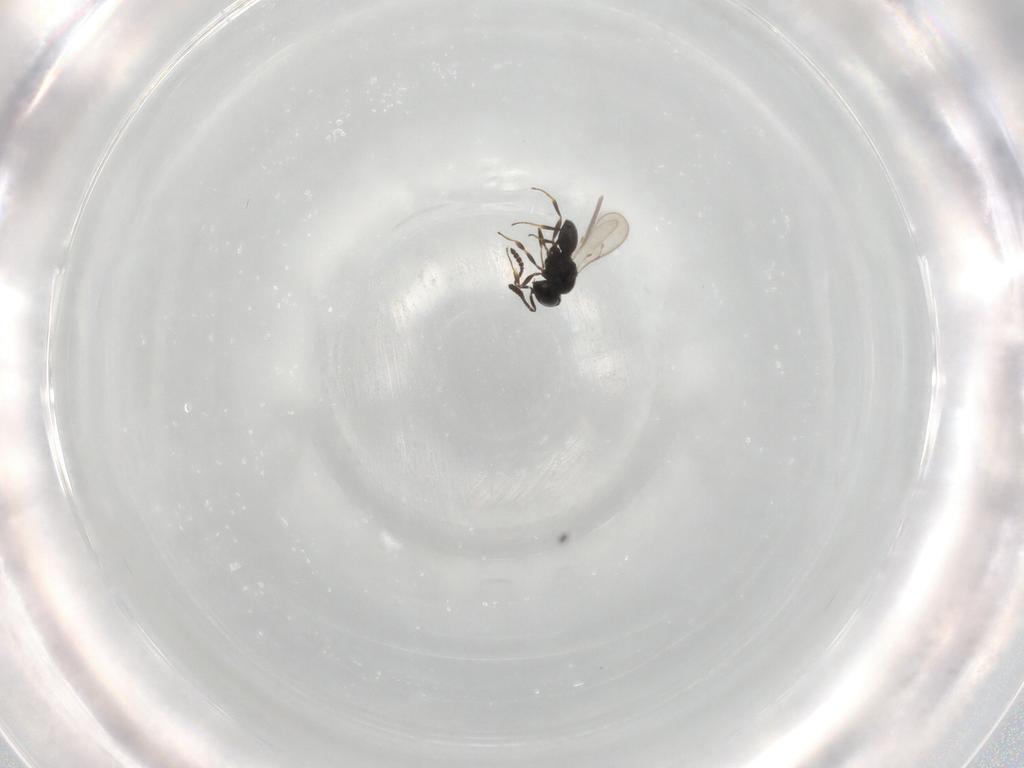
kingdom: Animalia
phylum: Arthropoda
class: Insecta
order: Hymenoptera
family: Scelionidae
